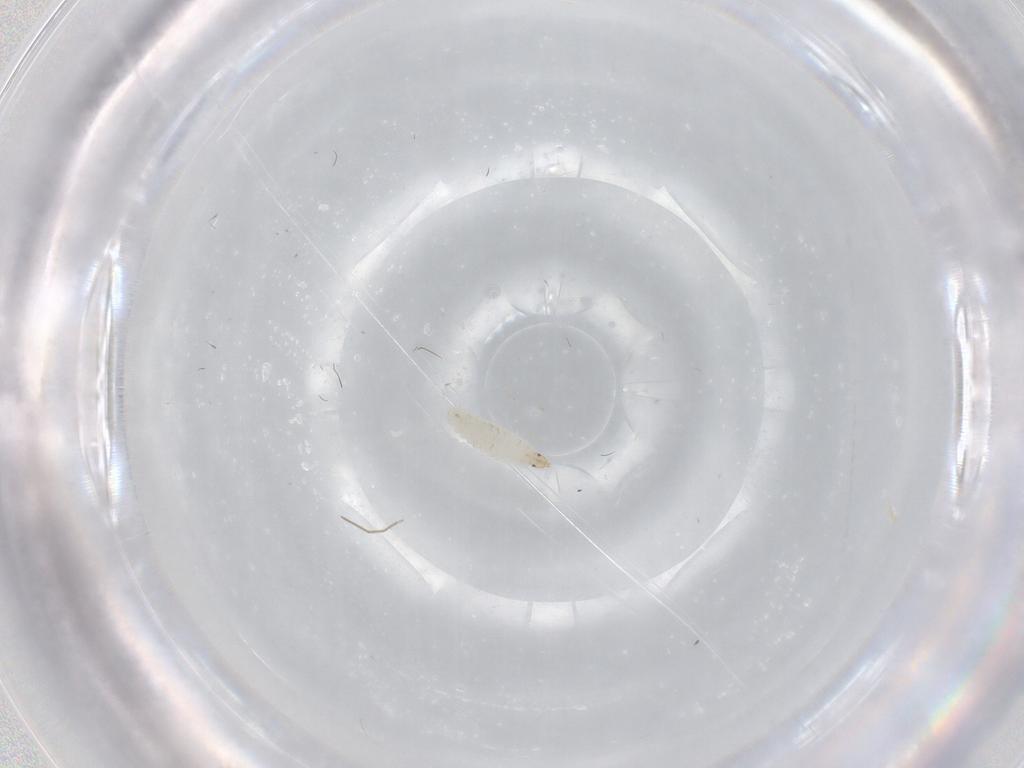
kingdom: Animalia
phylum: Arthropoda
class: Insecta
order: Diptera
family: Chironomidae
